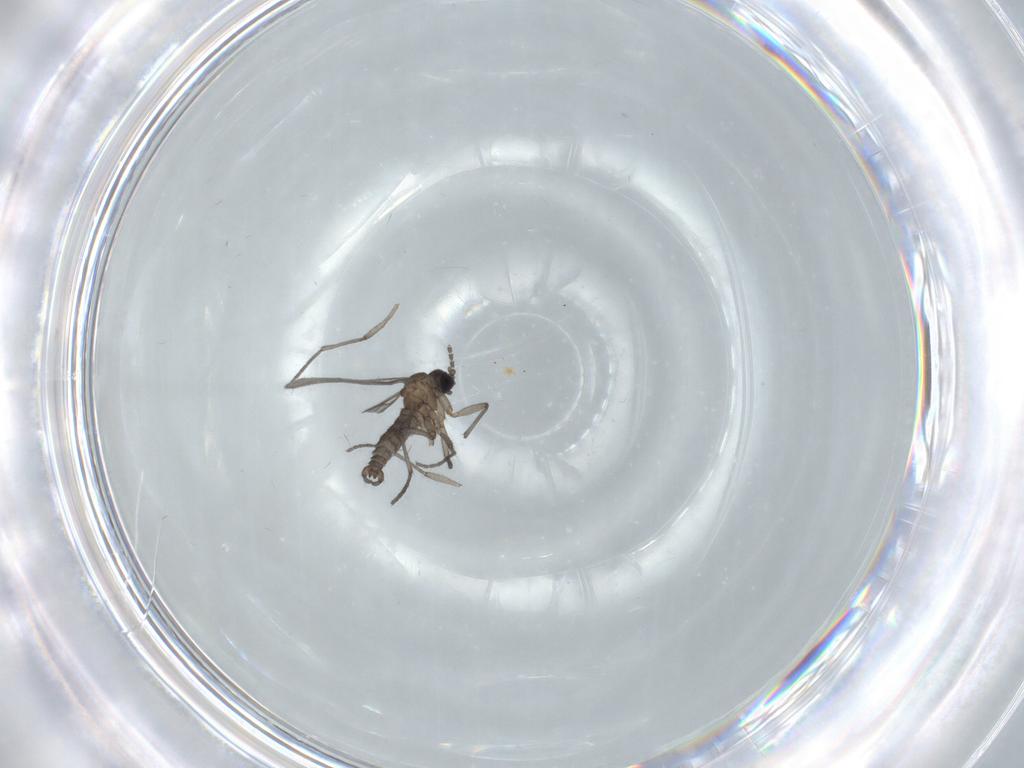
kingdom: Animalia
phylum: Arthropoda
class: Insecta
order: Diptera
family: Sciaridae
